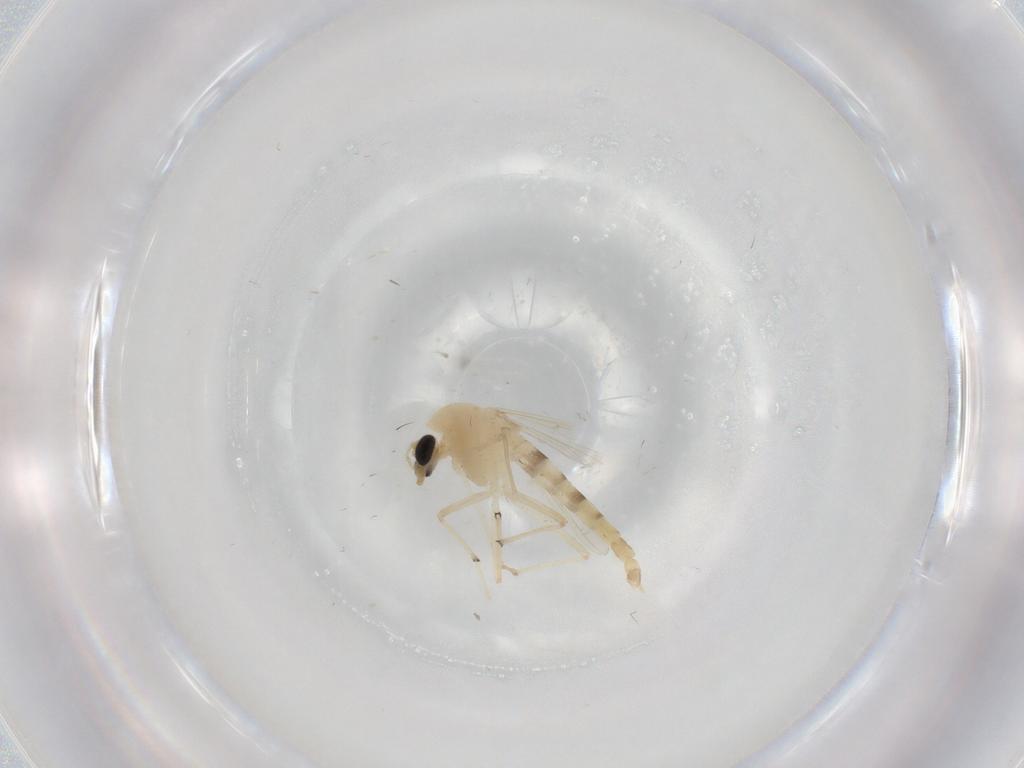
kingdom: Animalia
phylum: Arthropoda
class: Insecta
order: Diptera
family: Chironomidae
